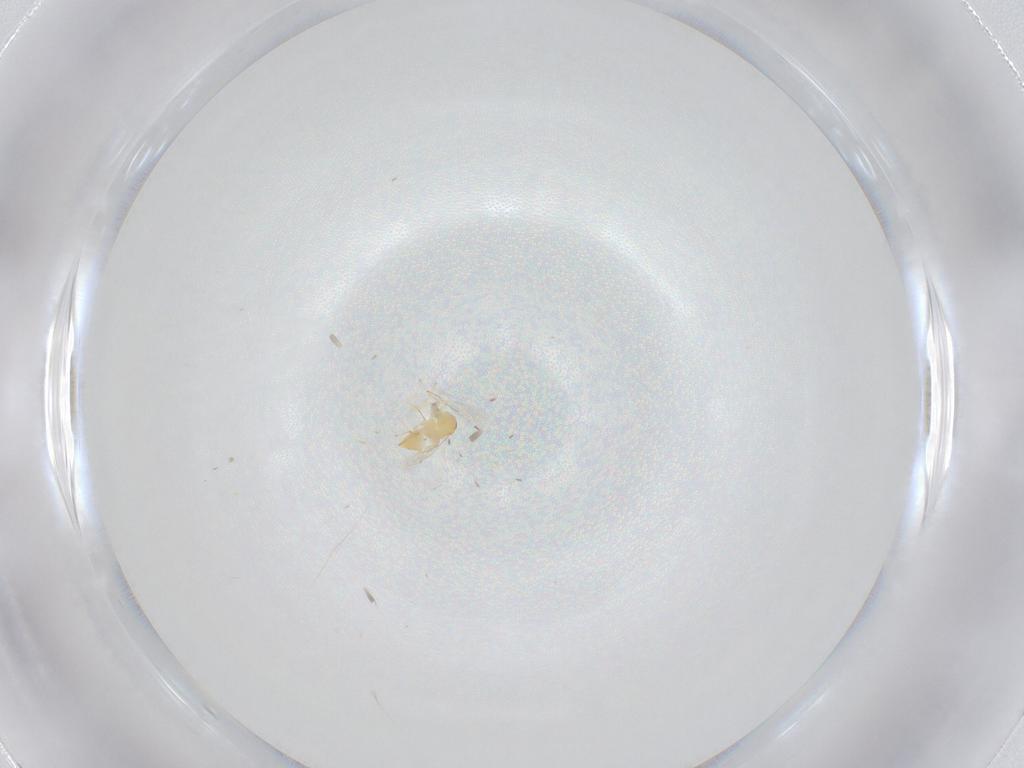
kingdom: Animalia
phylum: Arthropoda
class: Insecta
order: Hymenoptera
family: Aphelinidae
